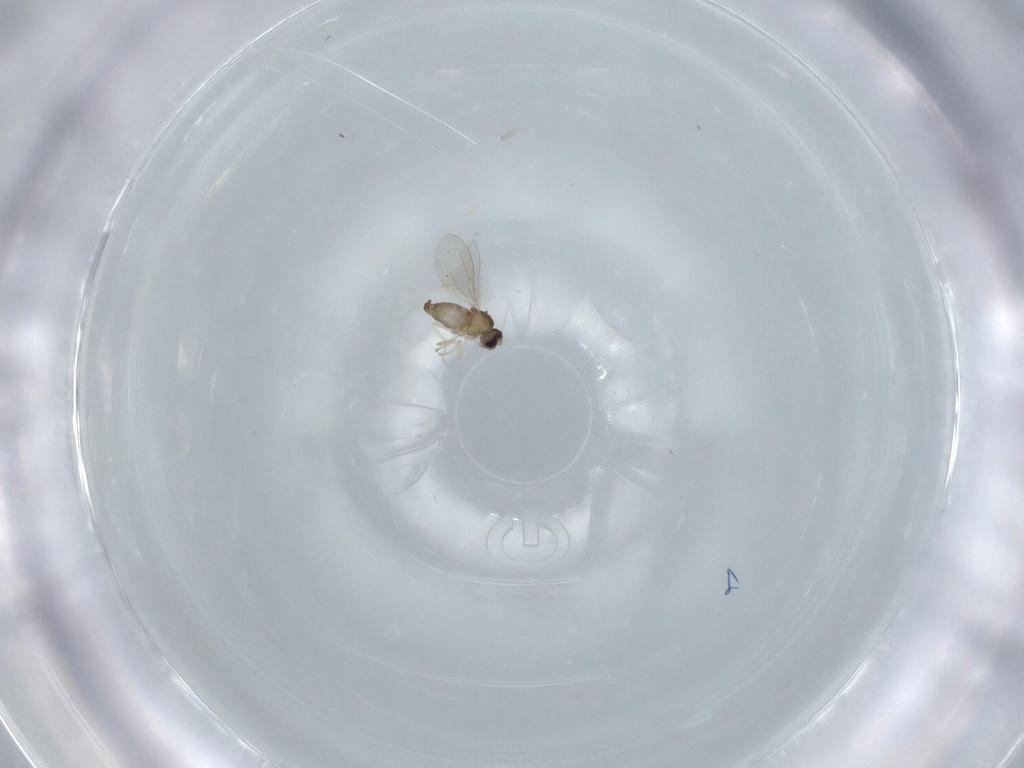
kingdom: Animalia
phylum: Arthropoda
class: Insecta
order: Diptera
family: Cecidomyiidae
